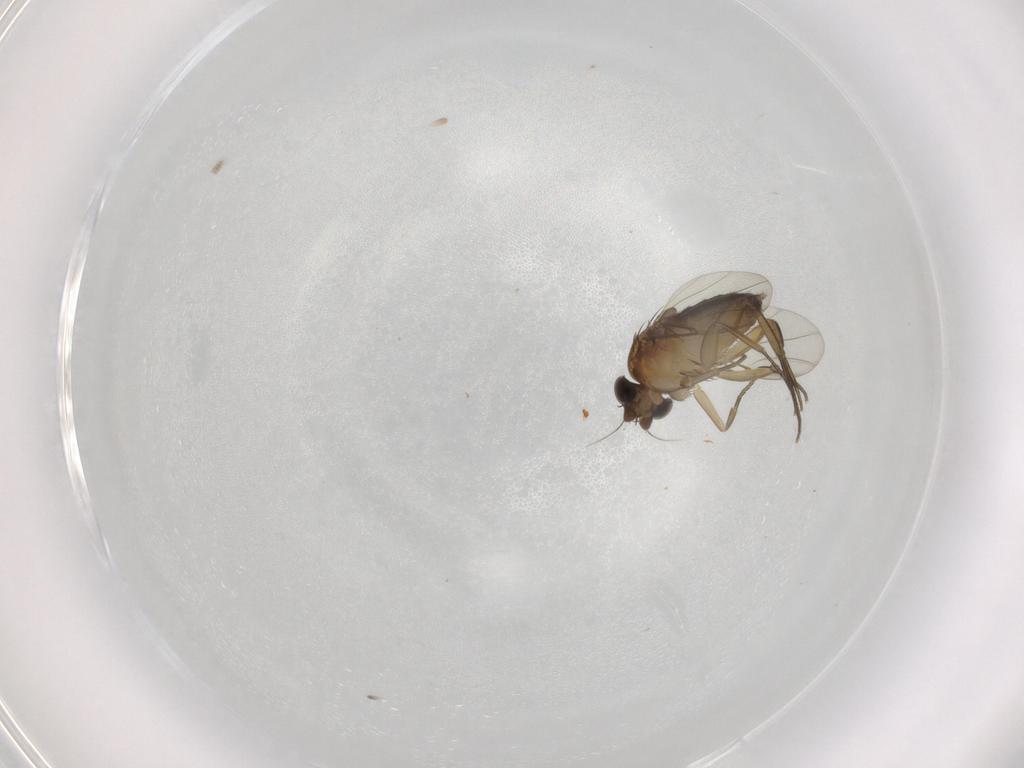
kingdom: Animalia
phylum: Arthropoda
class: Insecta
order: Diptera
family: Phoridae
